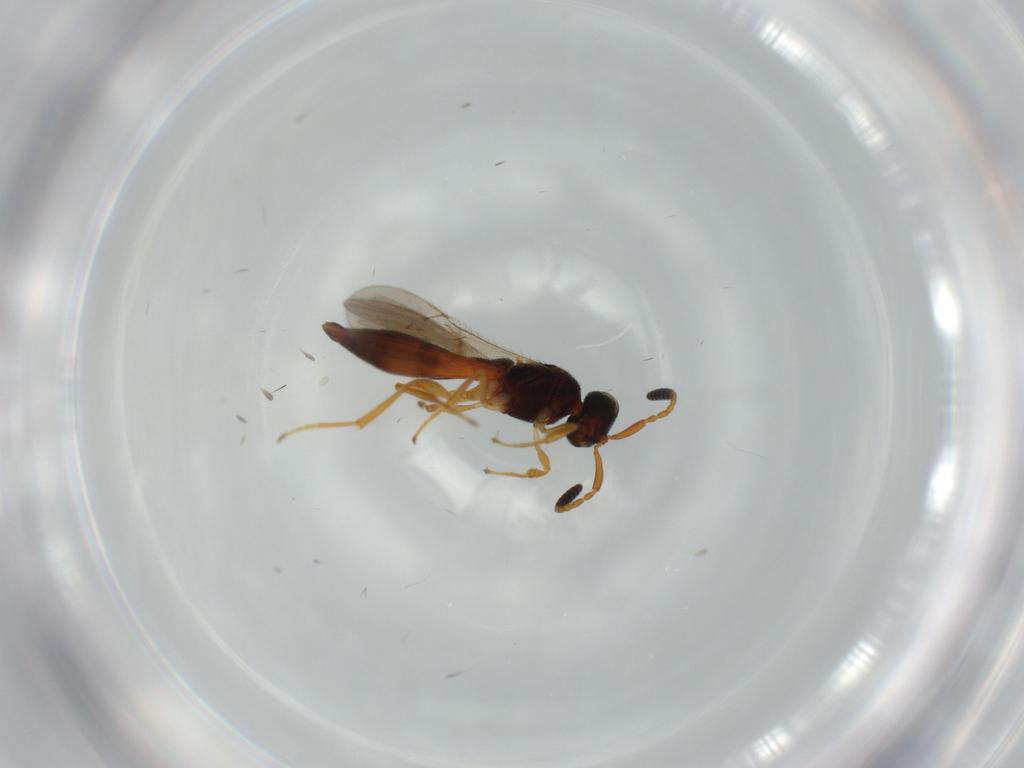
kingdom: Animalia
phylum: Arthropoda
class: Insecta
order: Hymenoptera
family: Scelionidae
